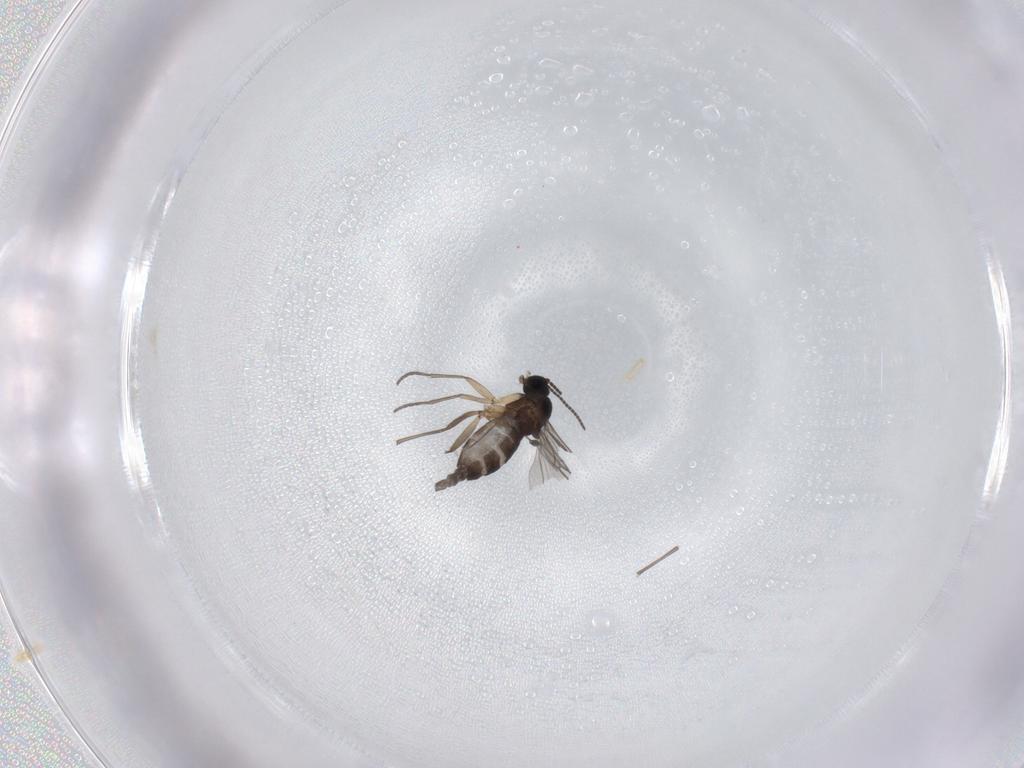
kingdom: Animalia
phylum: Arthropoda
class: Insecta
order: Diptera
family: Sciaridae
